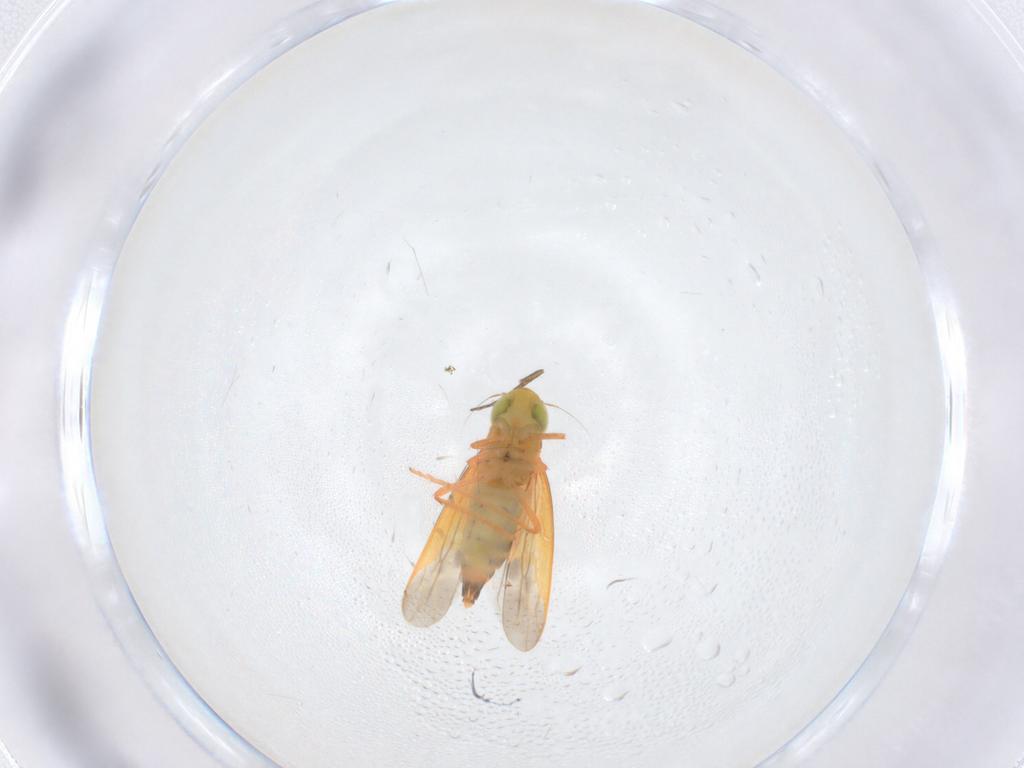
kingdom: Animalia
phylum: Arthropoda
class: Insecta
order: Hemiptera
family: Cicadellidae
